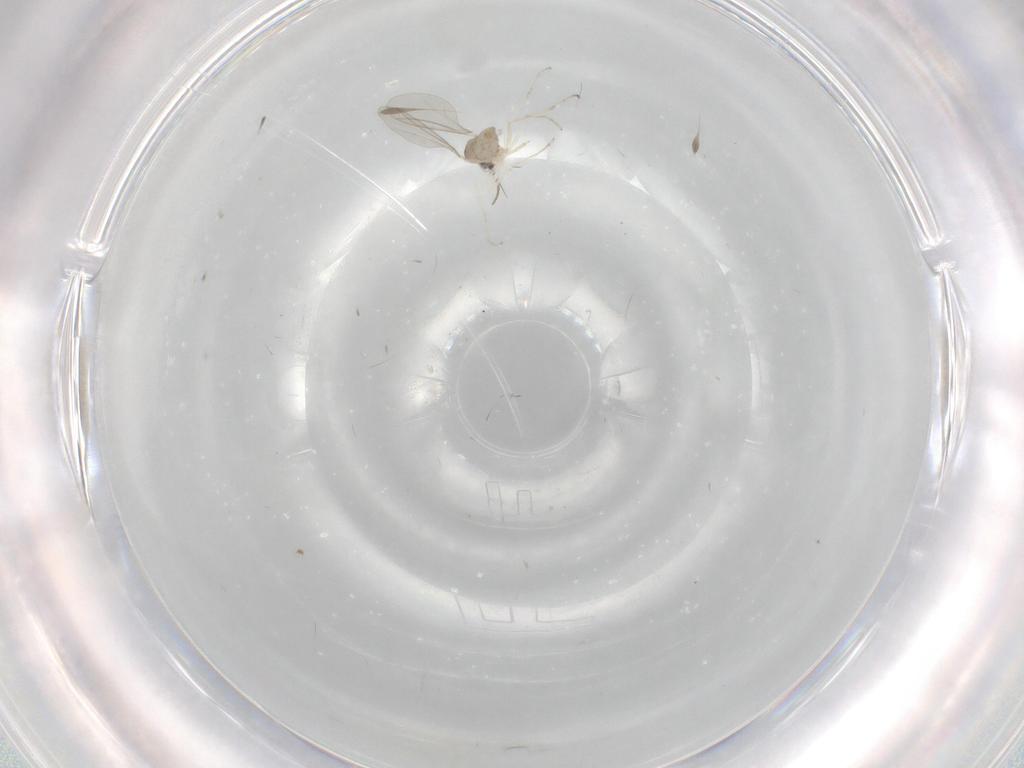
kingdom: Animalia
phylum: Arthropoda
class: Insecta
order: Diptera
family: Cecidomyiidae
